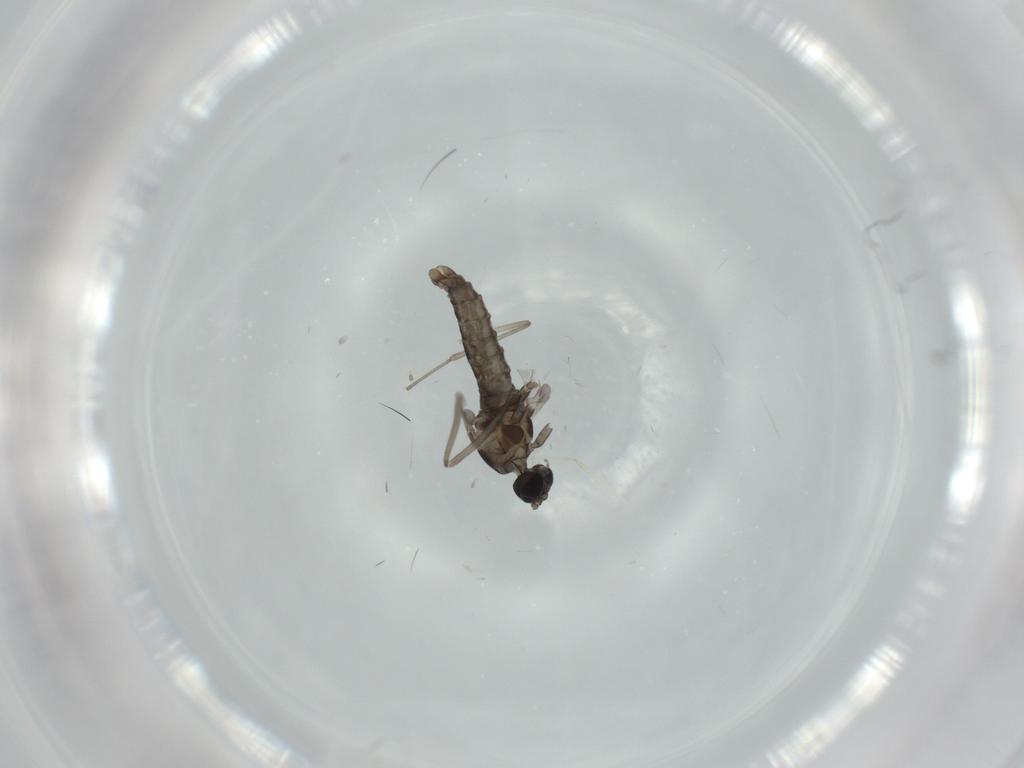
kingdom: Animalia
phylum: Arthropoda
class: Insecta
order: Diptera
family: Cecidomyiidae
